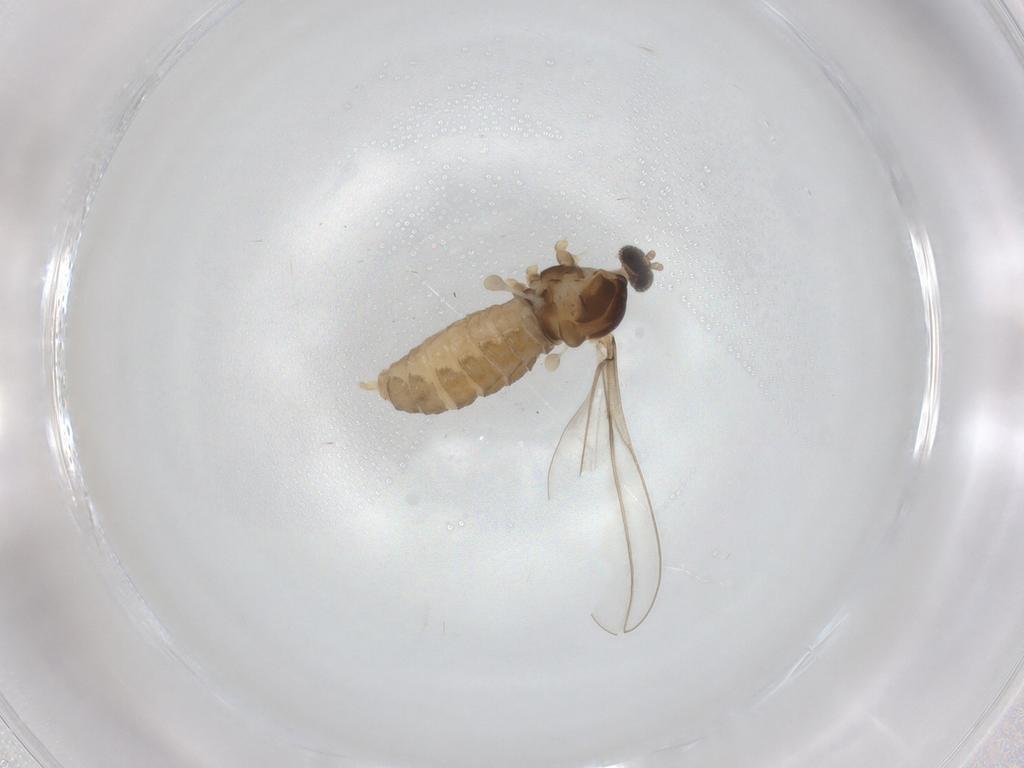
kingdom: Animalia
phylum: Arthropoda
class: Insecta
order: Diptera
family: Cecidomyiidae
